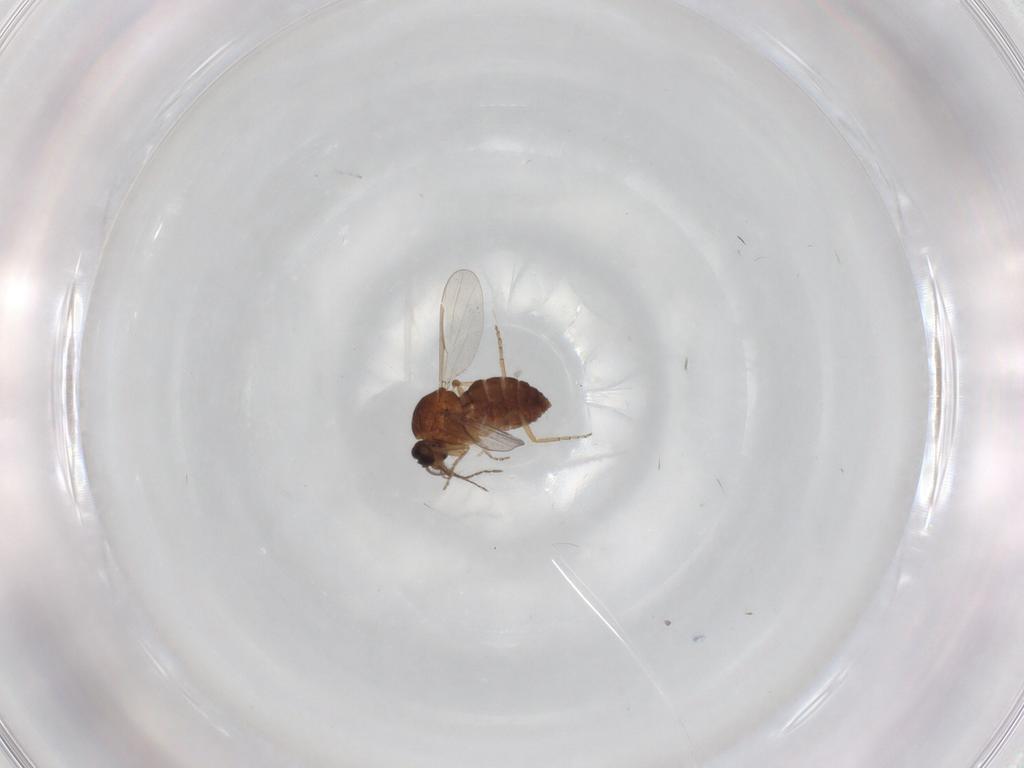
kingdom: Animalia
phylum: Arthropoda
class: Insecta
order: Diptera
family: Ceratopogonidae
